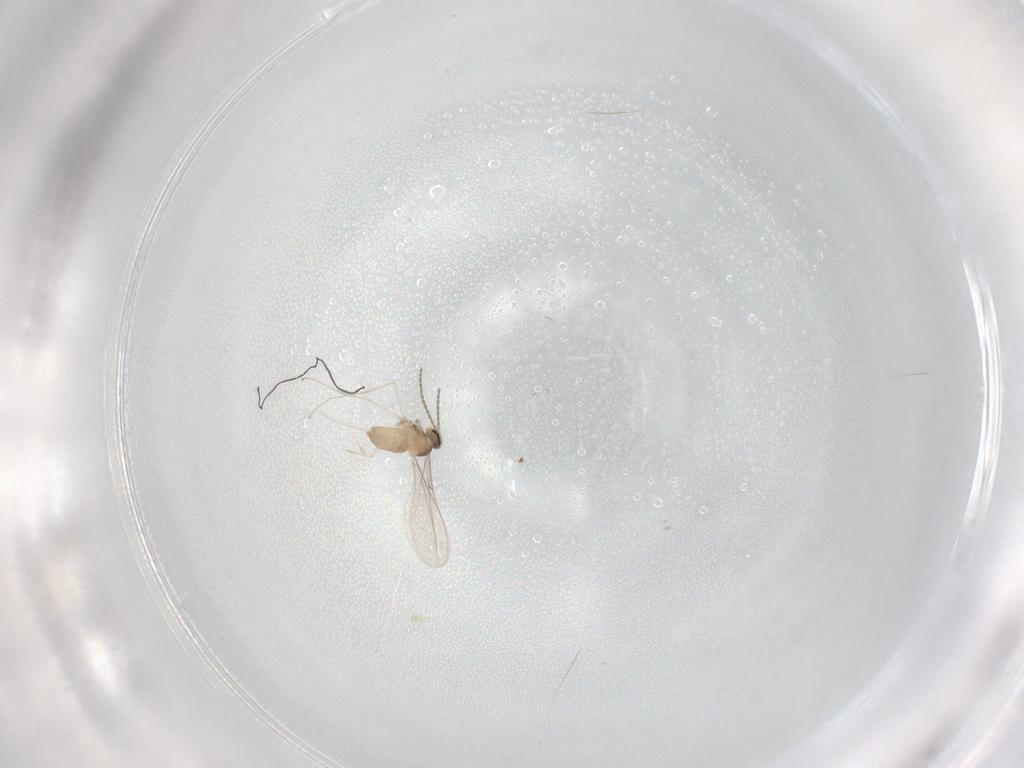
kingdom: Animalia
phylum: Arthropoda
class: Insecta
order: Diptera
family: Cecidomyiidae
